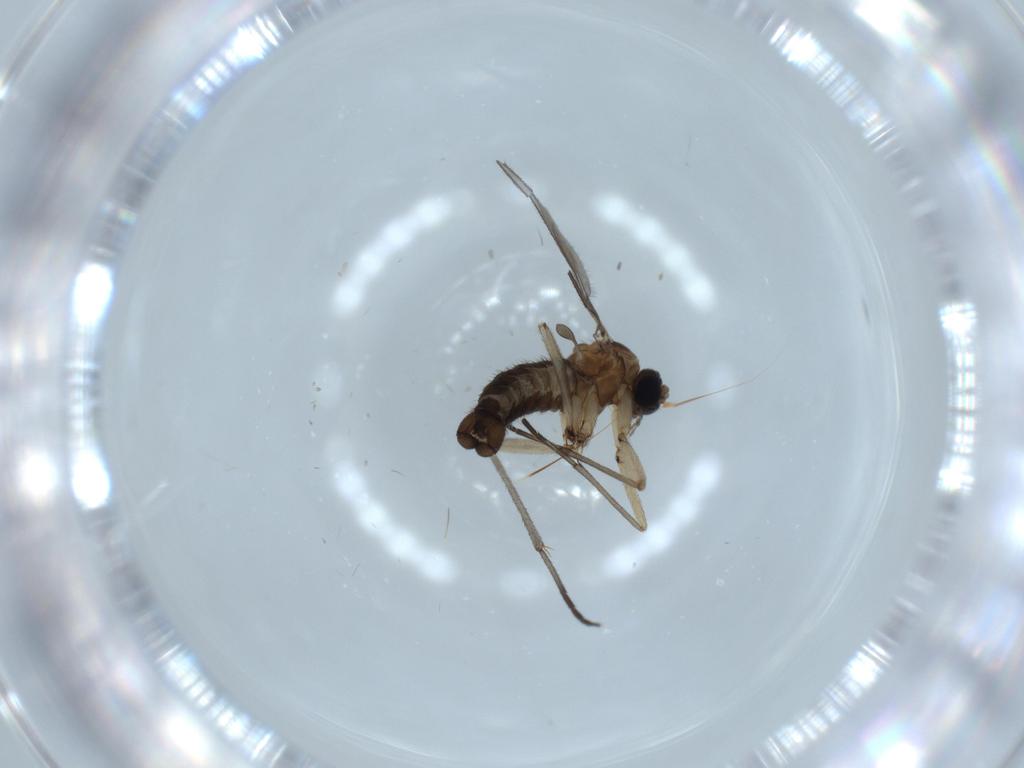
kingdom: Animalia
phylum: Arthropoda
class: Insecta
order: Diptera
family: Sciaridae
